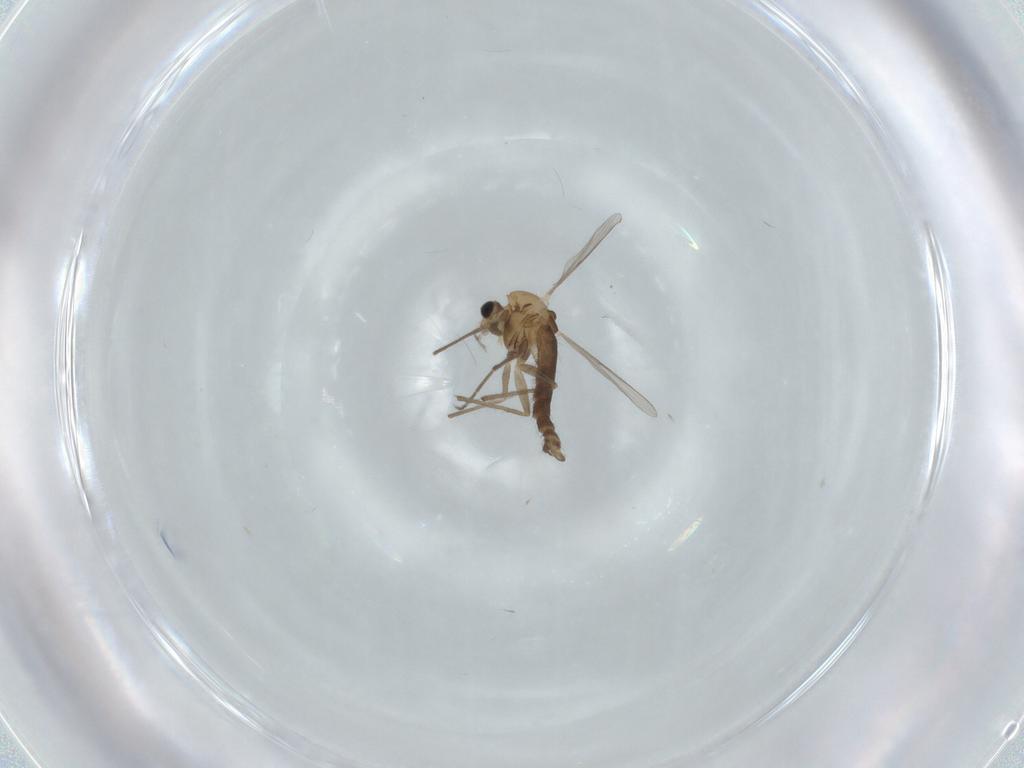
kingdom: Animalia
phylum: Arthropoda
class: Insecta
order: Diptera
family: Chironomidae
